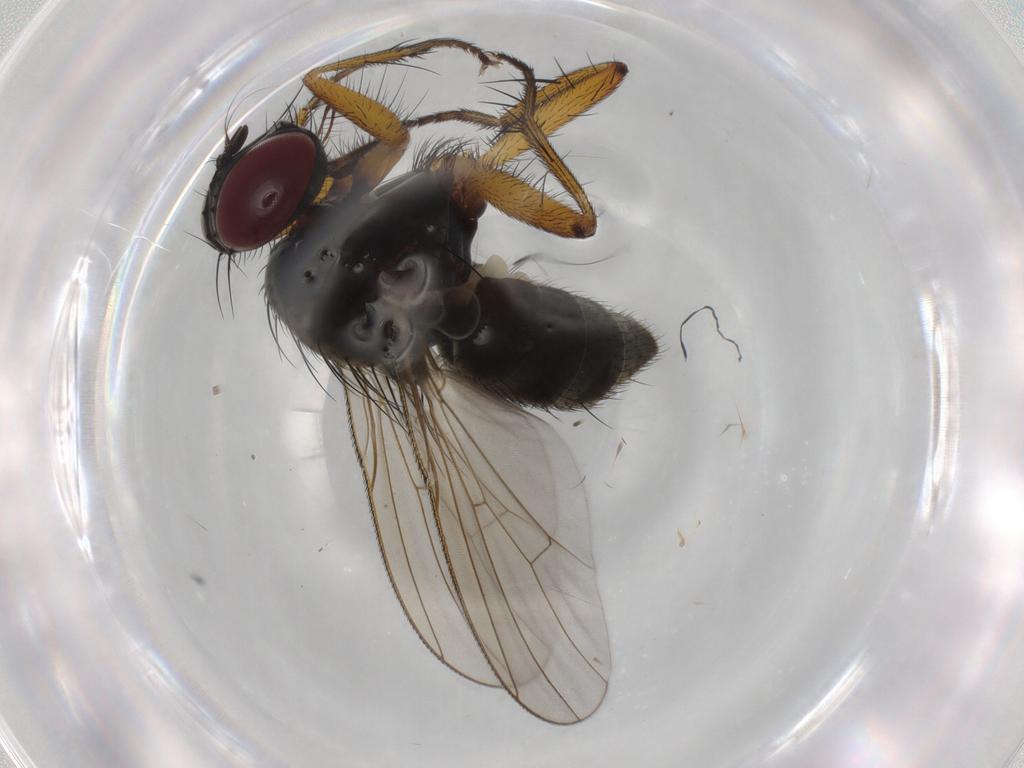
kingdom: Animalia
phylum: Arthropoda
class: Insecta
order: Diptera
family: Muscidae
